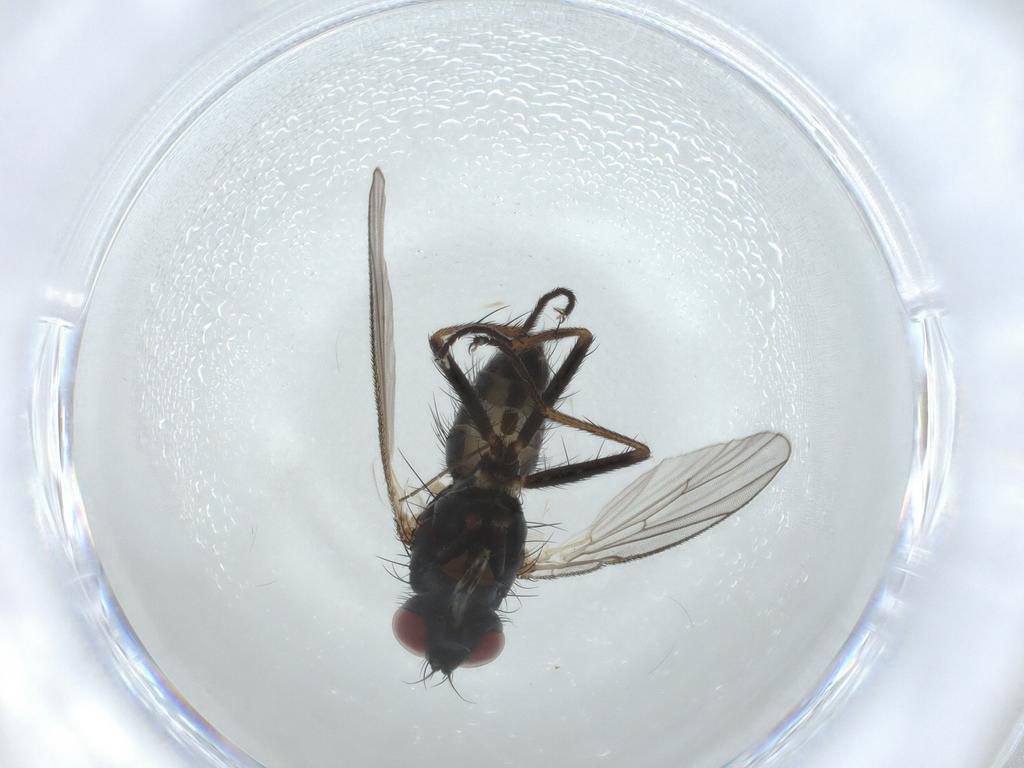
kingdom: Animalia
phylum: Arthropoda
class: Insecta
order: Diptera
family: Muscidae
